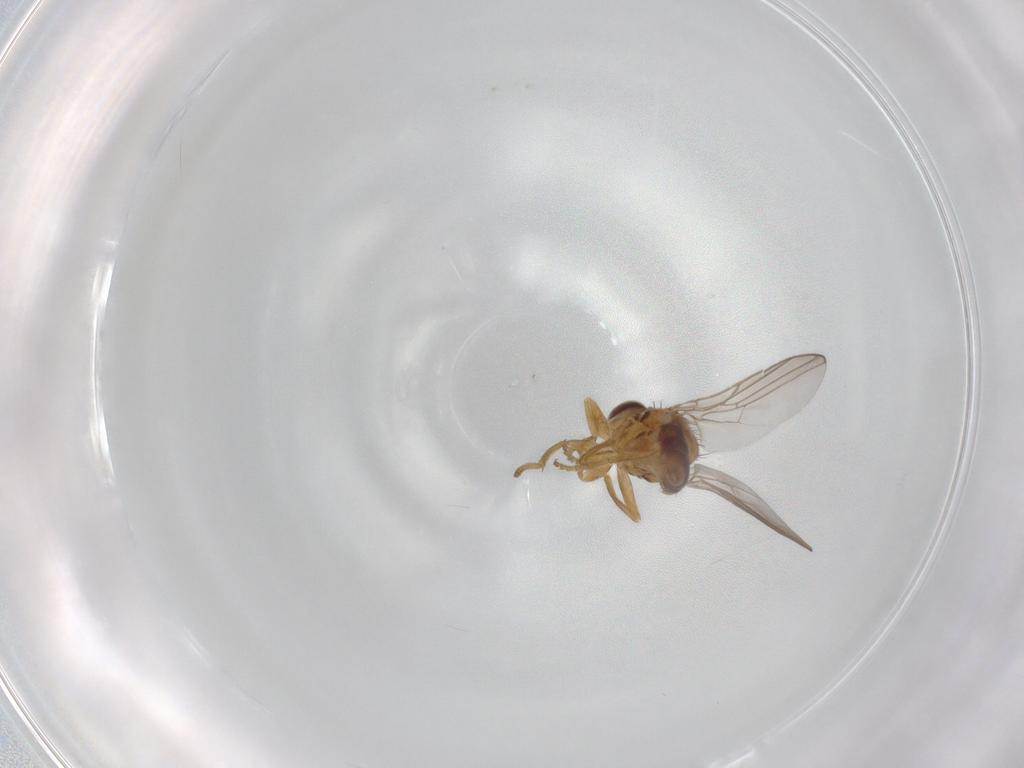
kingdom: Animalia
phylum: Arthropoda
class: Insecta
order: Diptera
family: Chloropidae
